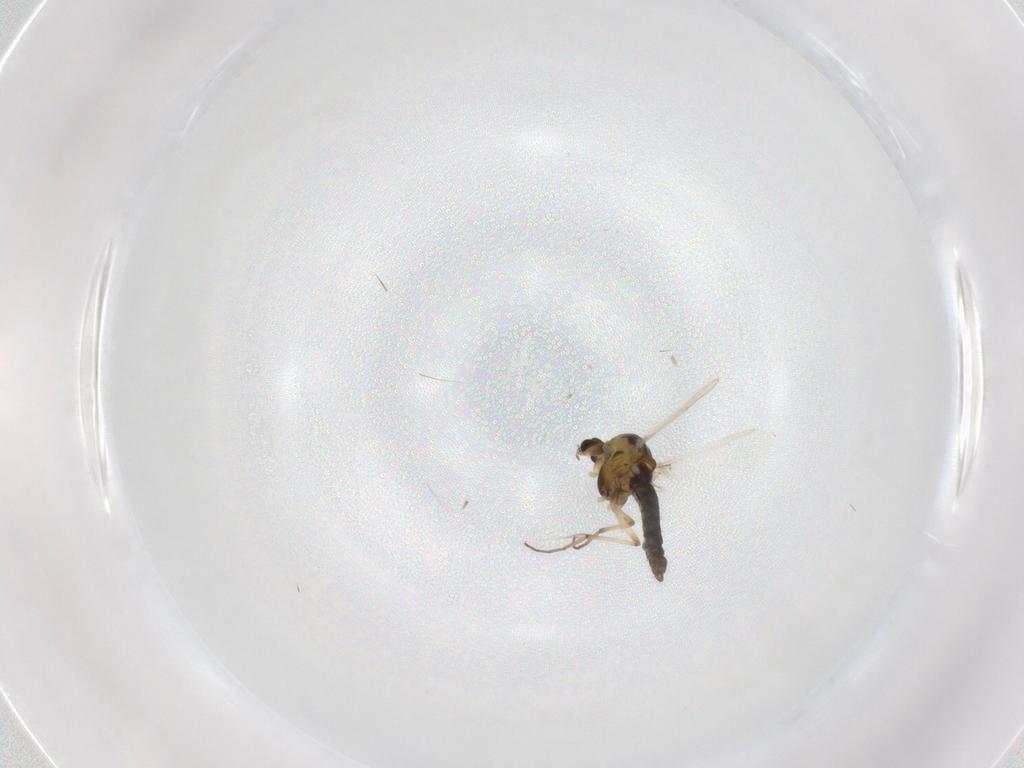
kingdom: Animalia
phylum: Arthropoda
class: Insecta
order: Diptera
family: Chironomidae
